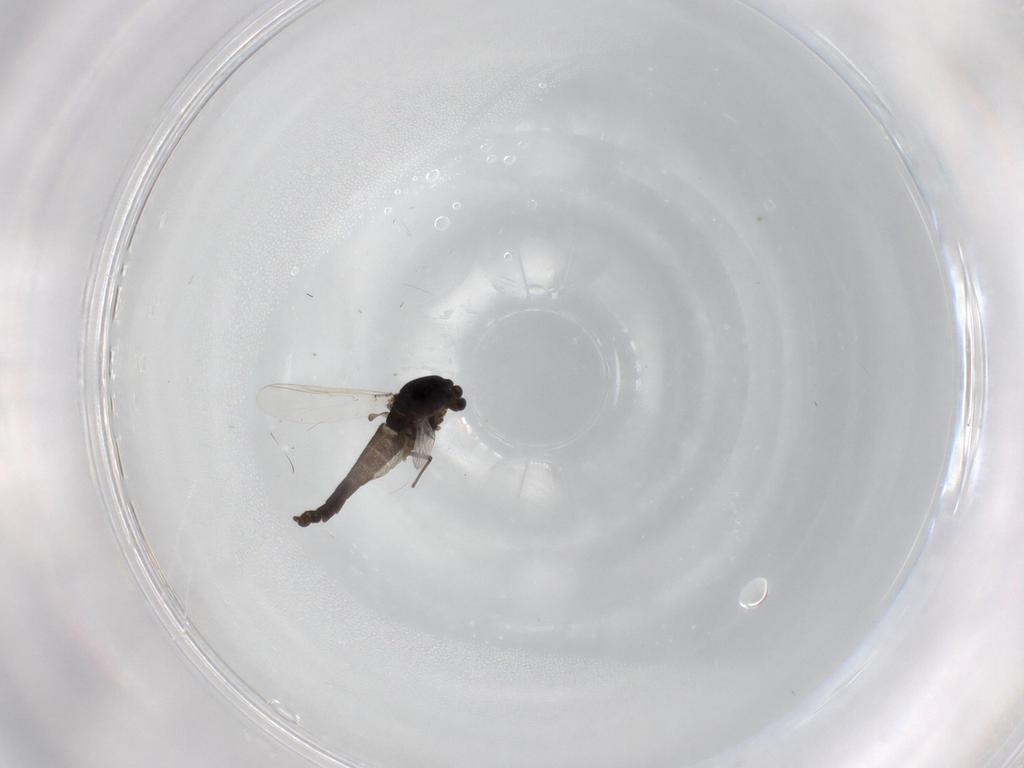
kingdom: Animalia
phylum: Arthropoda
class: Insecta
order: Diptera
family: Chironomidae
